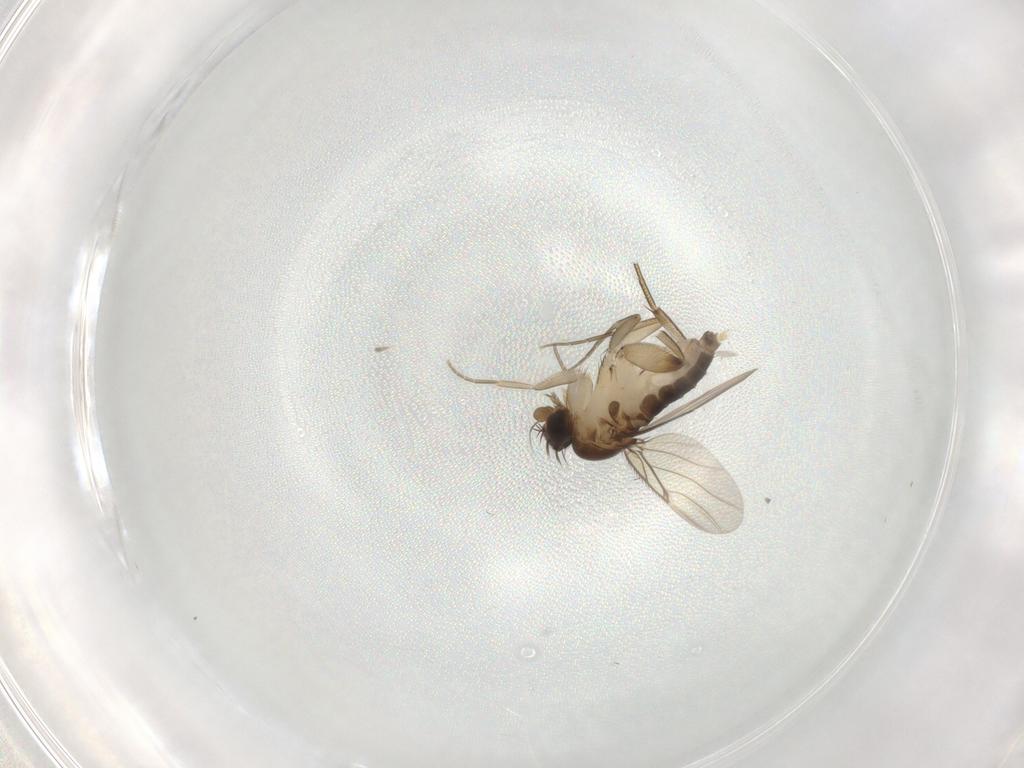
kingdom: Animalia
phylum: Arthropoda
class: Insecta
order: Diptera
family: Phoridae
